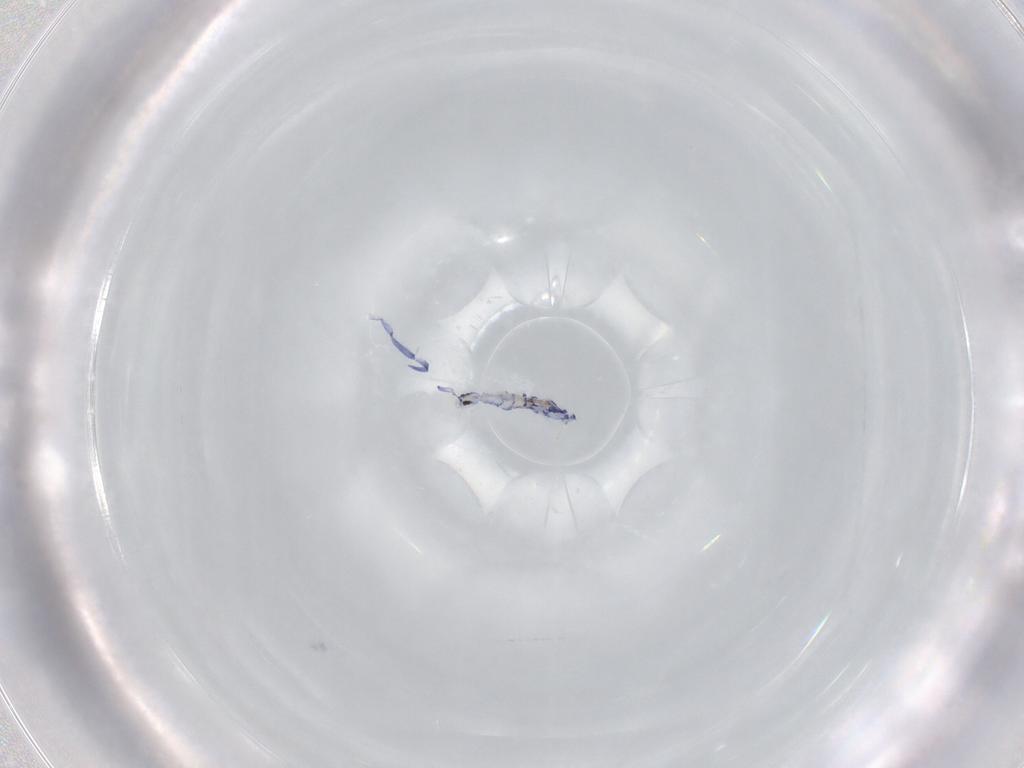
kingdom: Animalia
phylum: Arthropoda
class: Collembola
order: Entomobryomorpha
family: Entomobryidae
